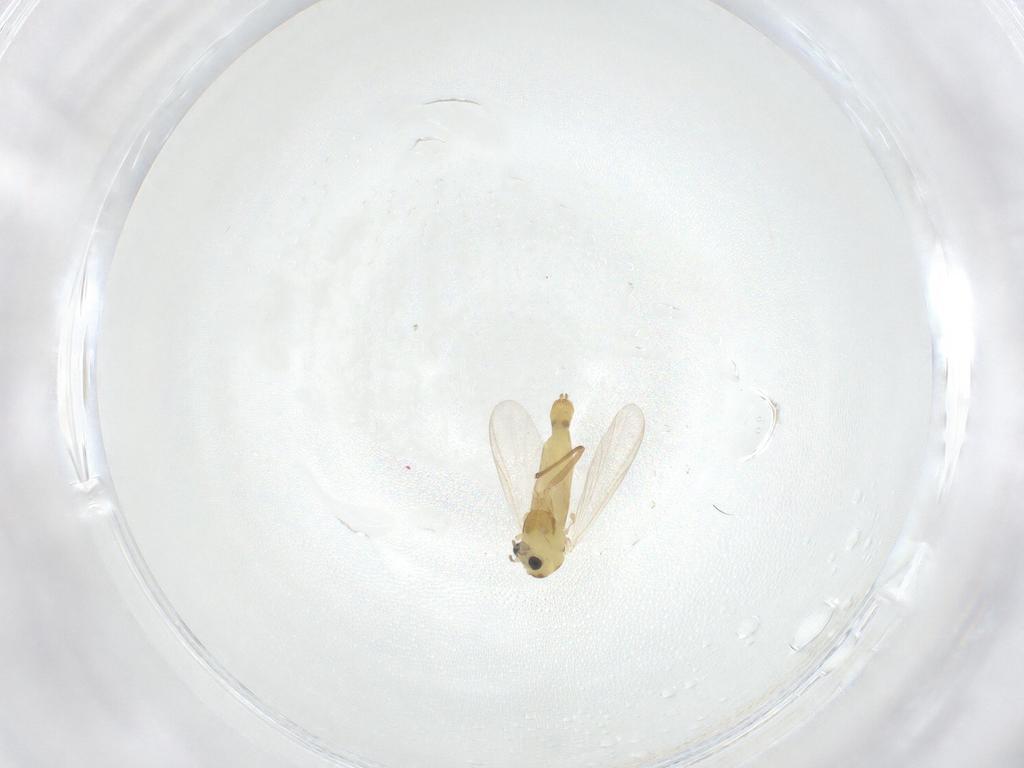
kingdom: Animalia
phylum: Arthropoda
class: Insecta
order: Diptera
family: Chironomidae
